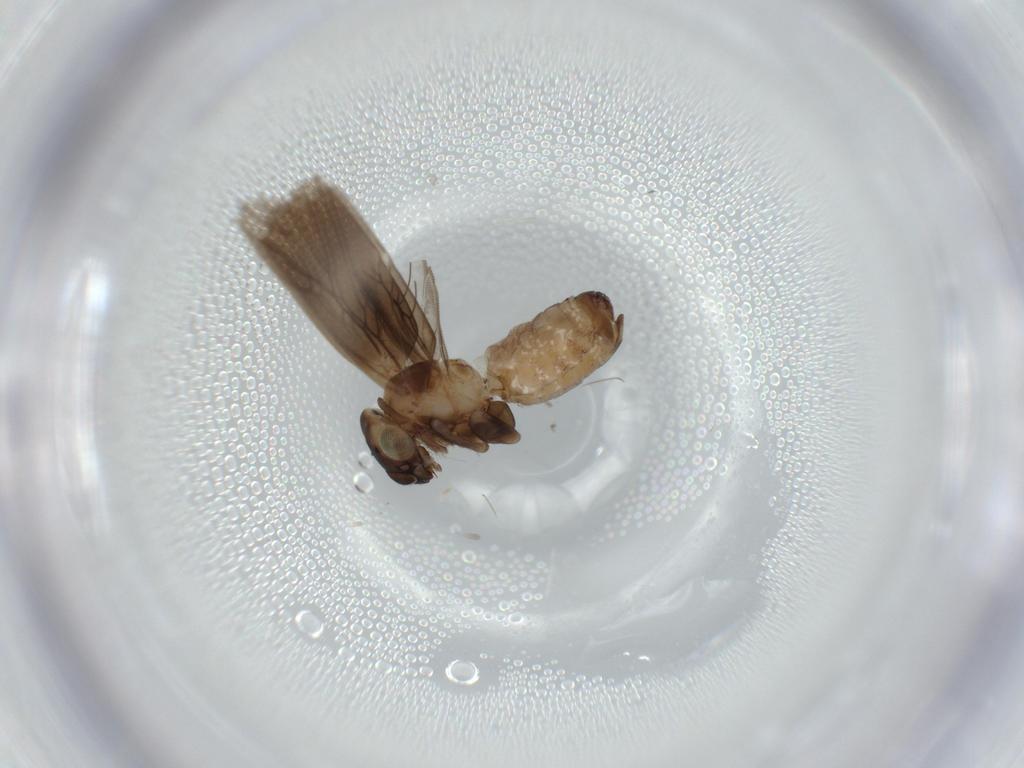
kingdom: Animalia
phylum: Arthropoda
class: Insecta
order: Psocodea
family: Lepidopsocidae
